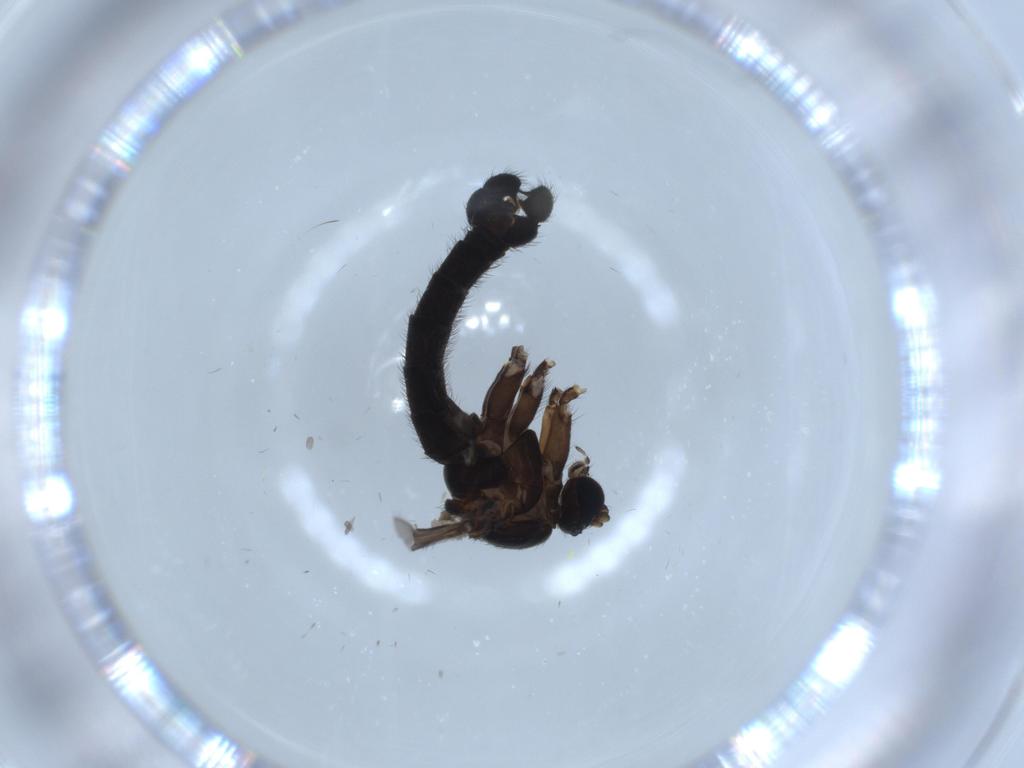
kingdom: Animalia
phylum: Arthropoda
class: Insecta
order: Diptera
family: Sciaridae
